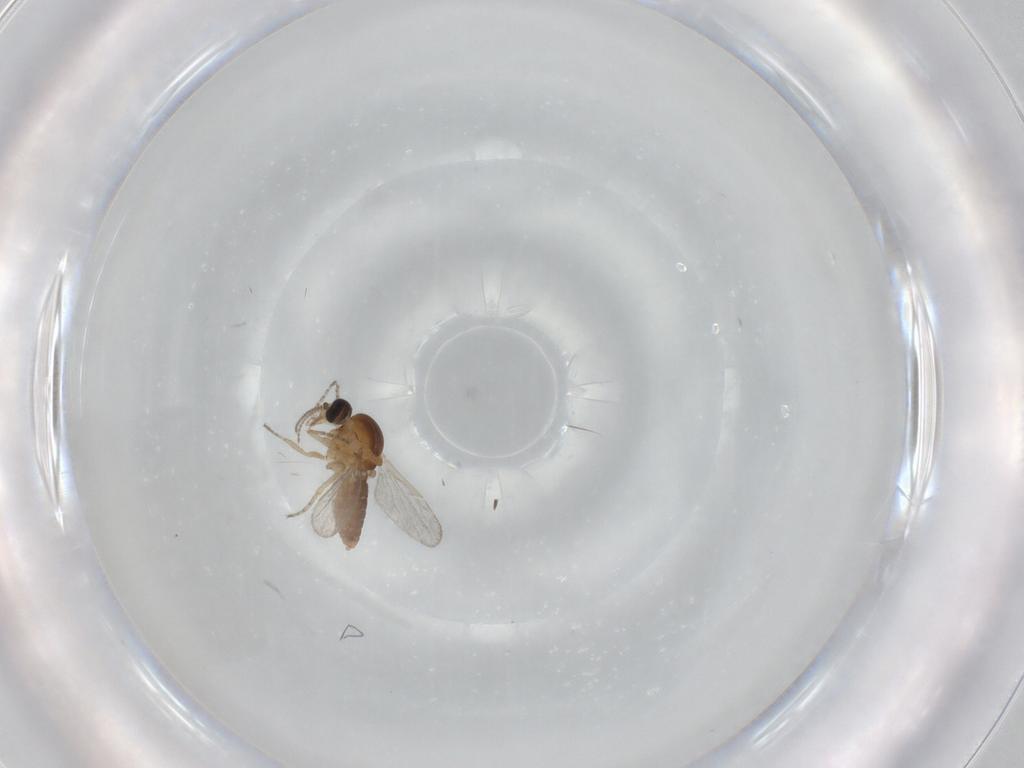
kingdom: Animalia
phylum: Arthropoda
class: Insecta
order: Diptera
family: Ceratopogonidae
